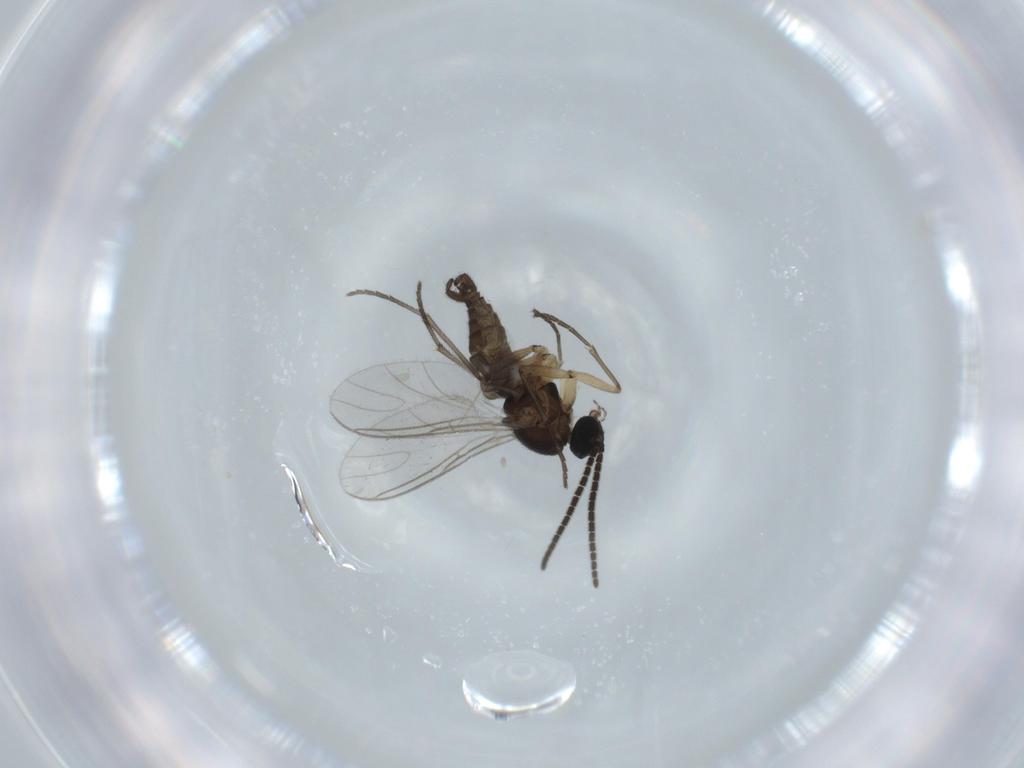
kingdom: Animalia
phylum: Arthropoda
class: Insecta
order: Diptera
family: Sciaridae
